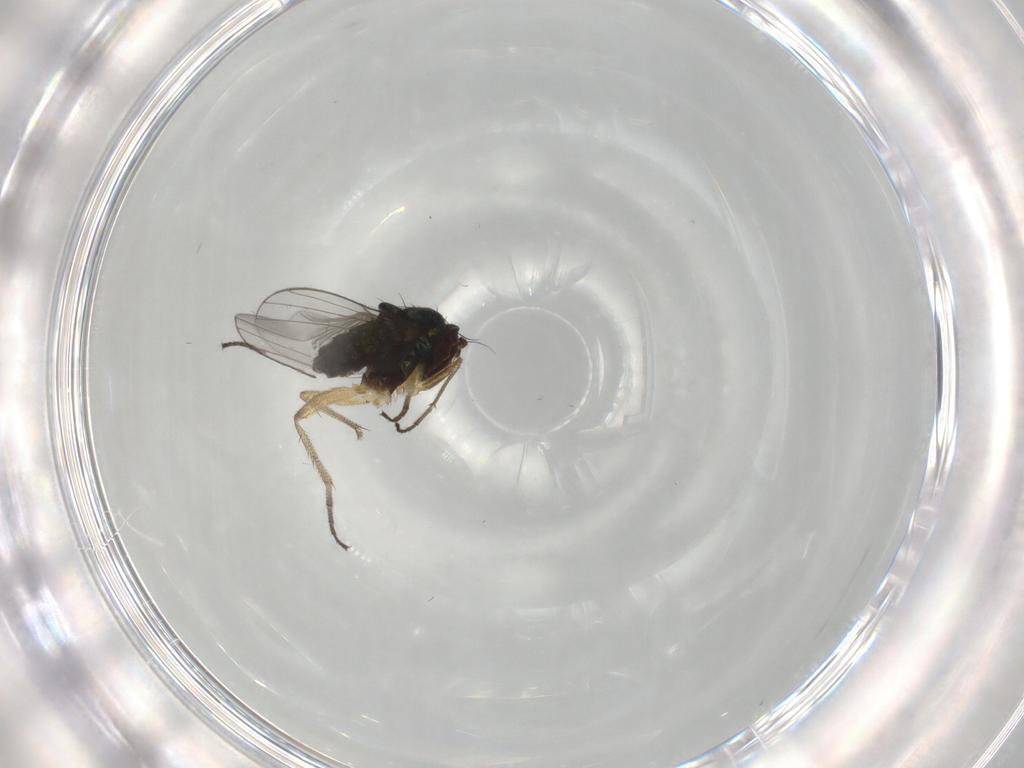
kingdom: Animalia
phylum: Arthropoda
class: Insecta
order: Diptera
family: Dolichopodidae
